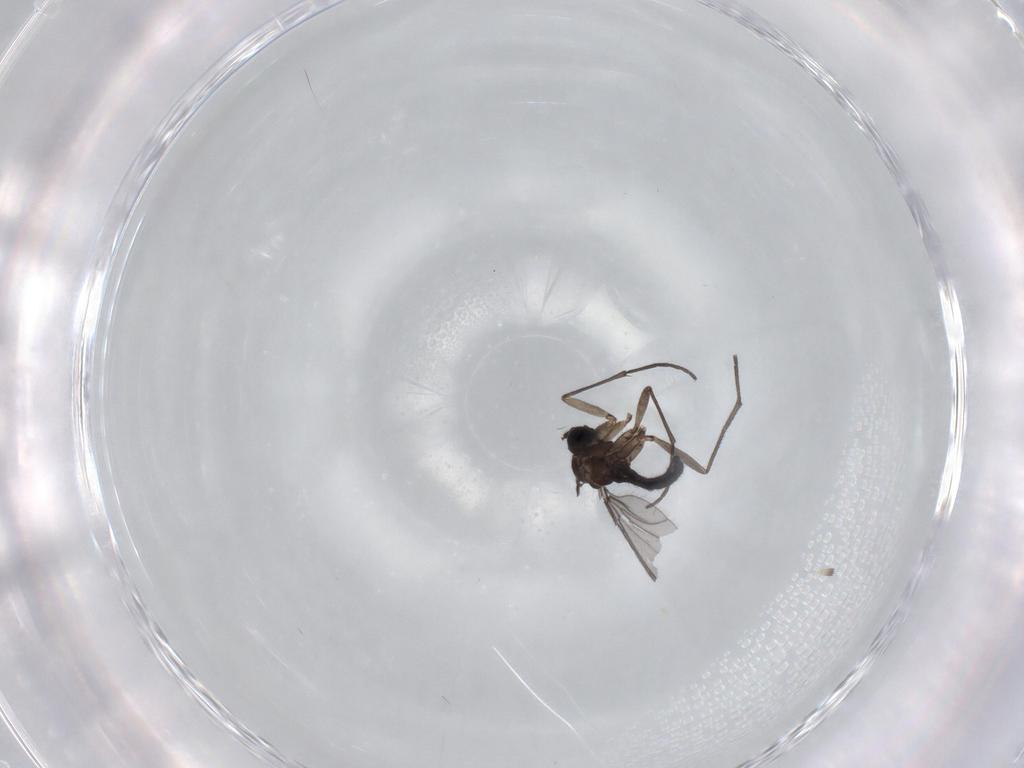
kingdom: Animalia
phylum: Arthropoda
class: Insecta
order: Diptera
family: Sciaridae
